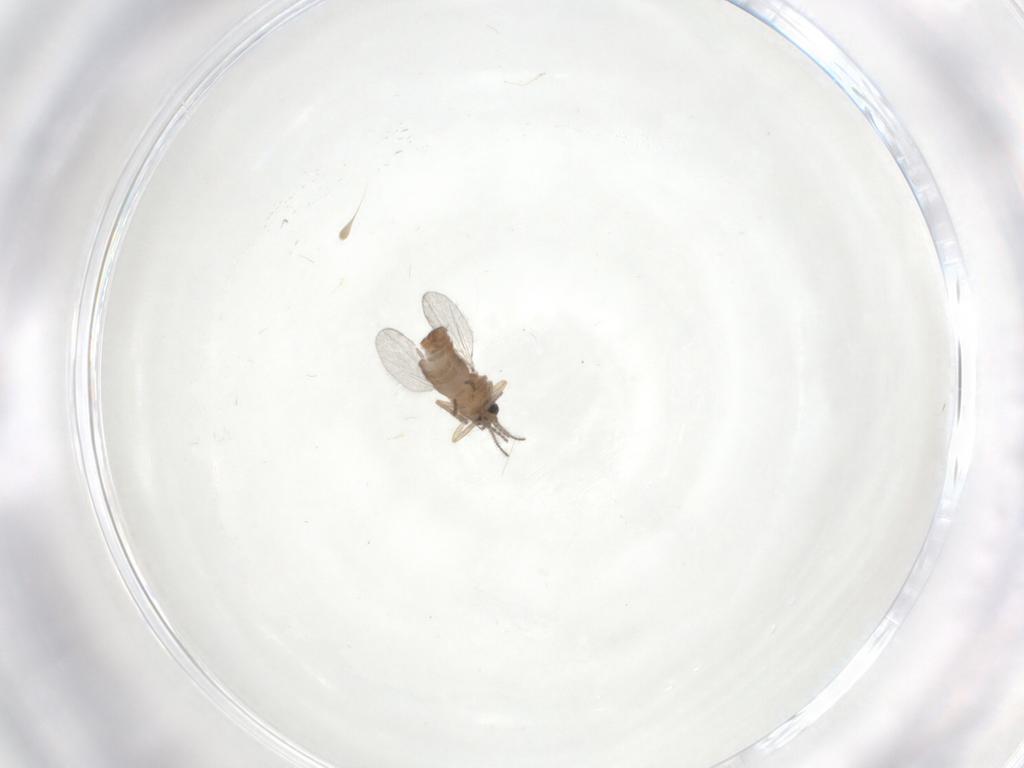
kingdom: Animalia
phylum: Arthropoda
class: Insecta
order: Diptera
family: Ceratopogonidae
